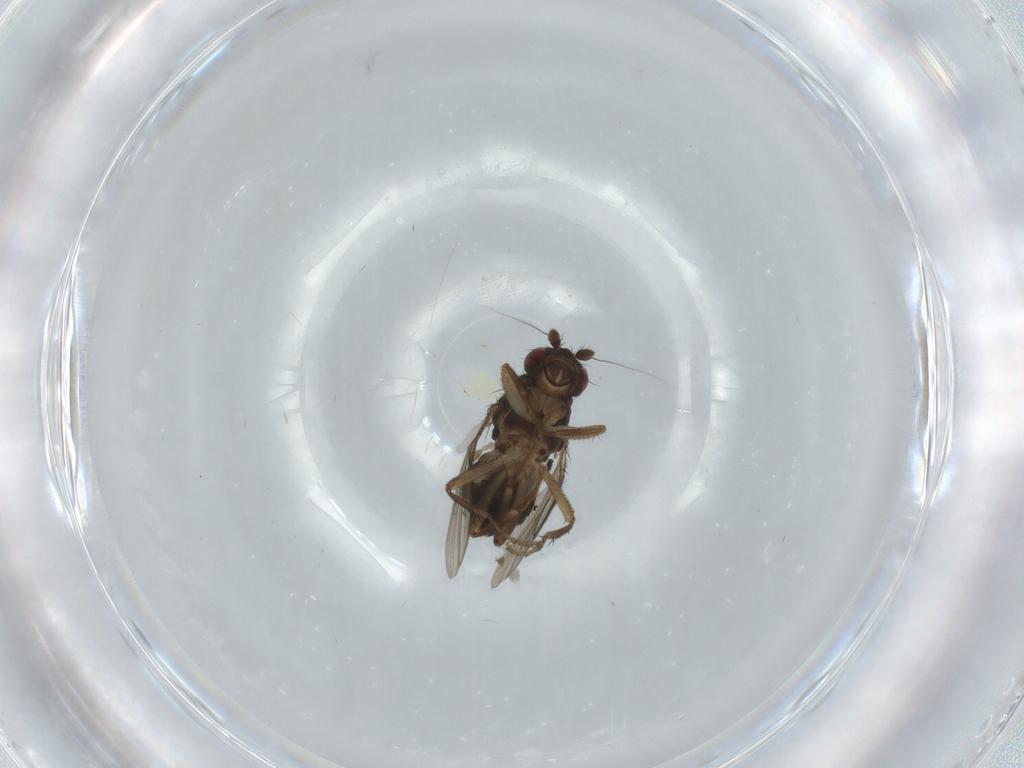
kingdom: Animalia
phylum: Arthropoda
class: Insecta
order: Diptera
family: Sphaeroceridae
